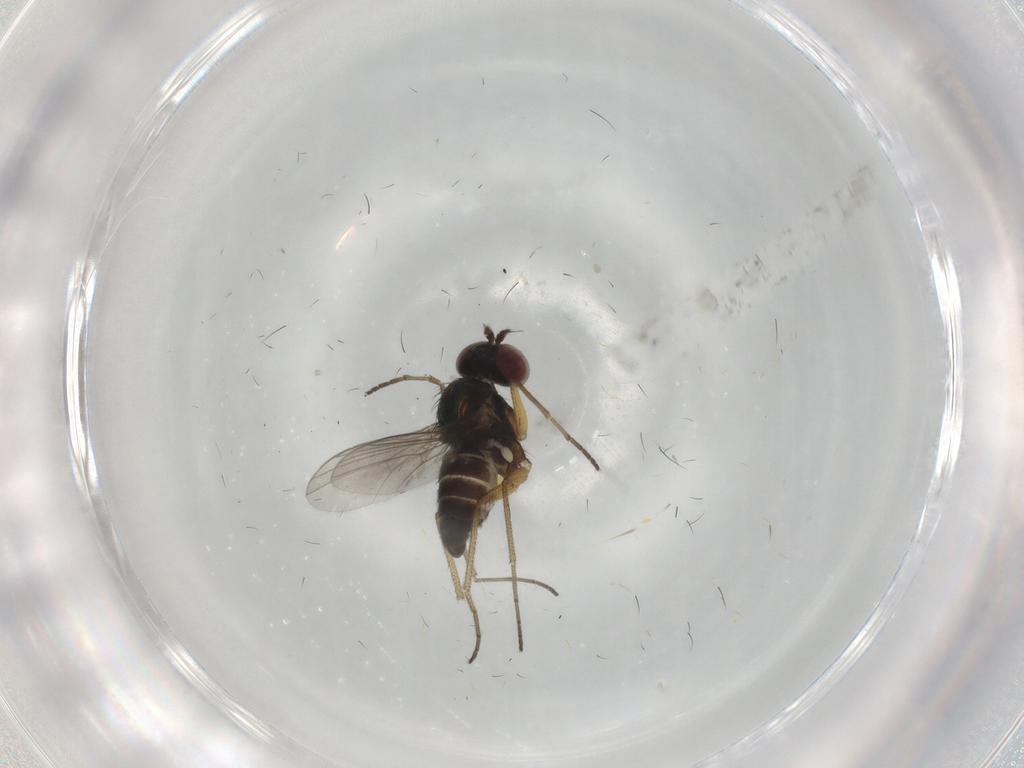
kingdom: Animalia
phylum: Arthropoda
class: Insecta
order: Diptera
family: Dolichopodidae
